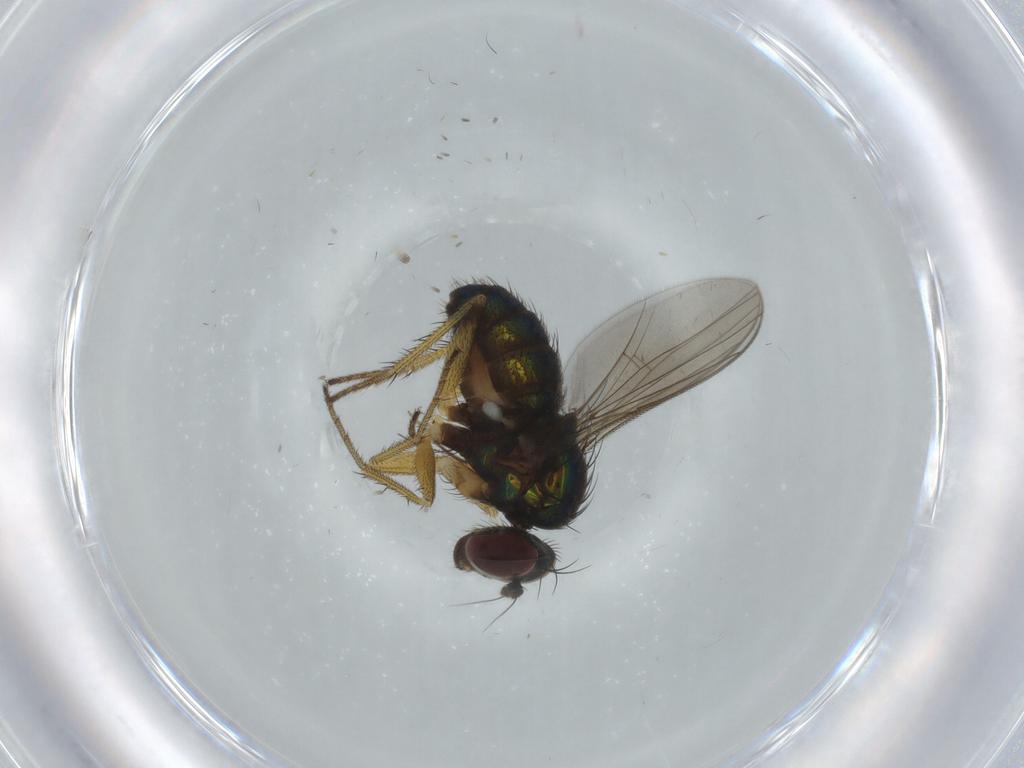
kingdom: Animalia
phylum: Arthropoda
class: Insecta
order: Diptera
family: Dolichopodidae
